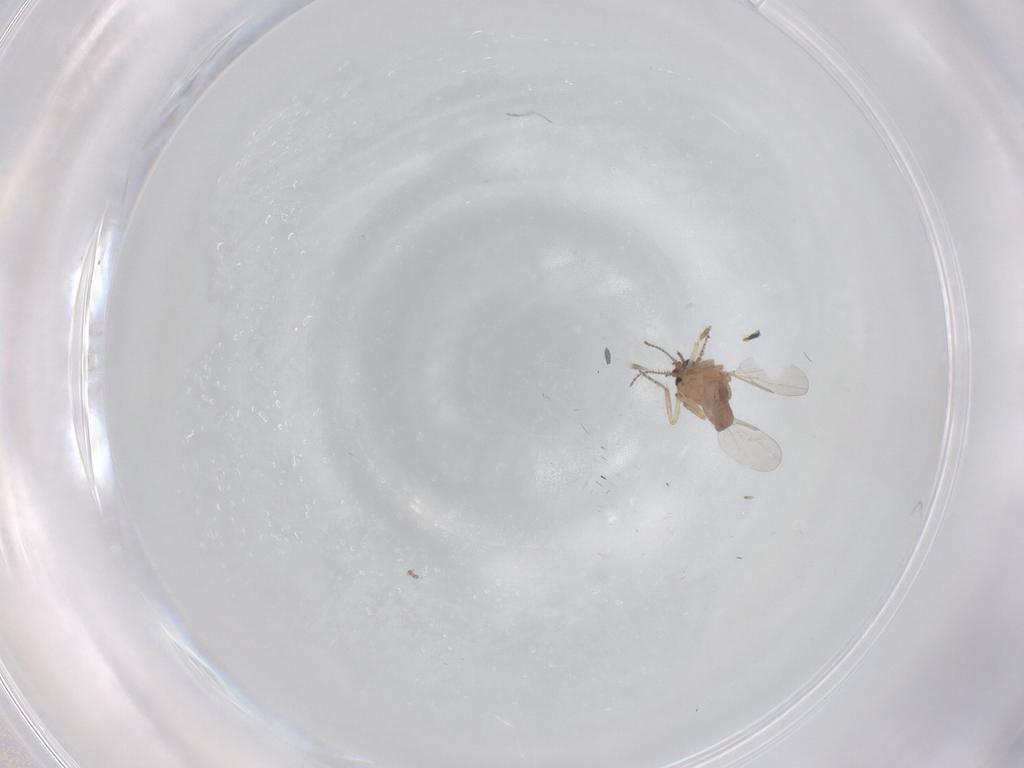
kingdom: Animalia
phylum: Arthropoda
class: Insecta
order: Diptera
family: Ceratopogonidae
